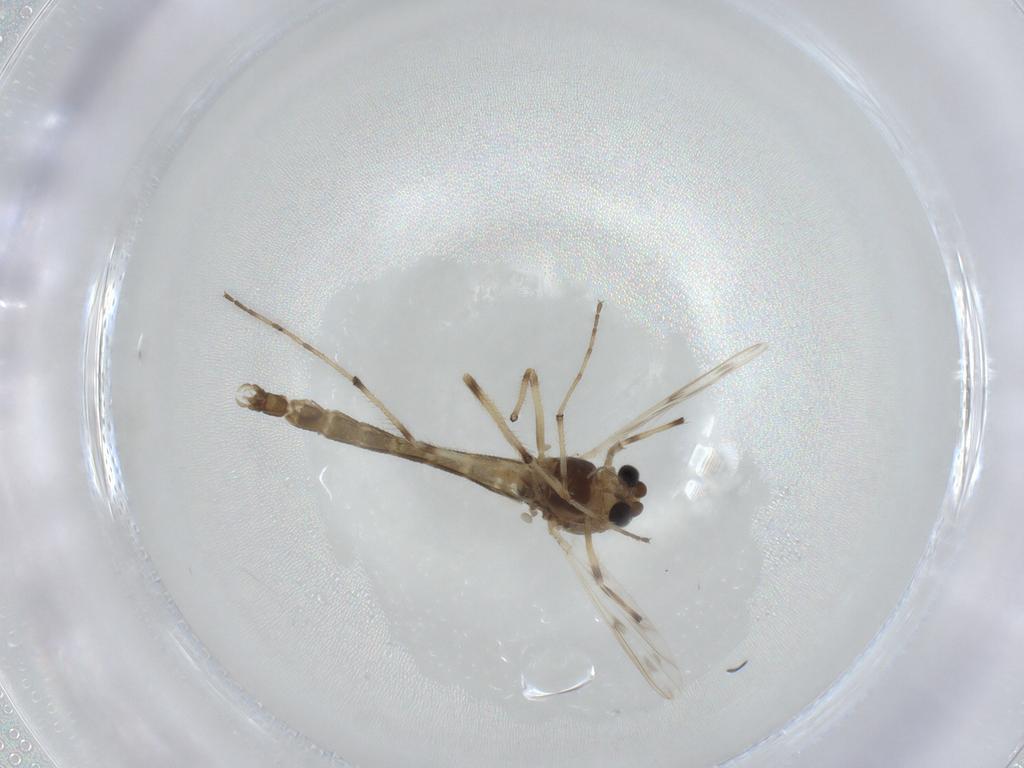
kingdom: Animalia
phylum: Arthropoda
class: Insecta
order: Diptera
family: Chironomidae
